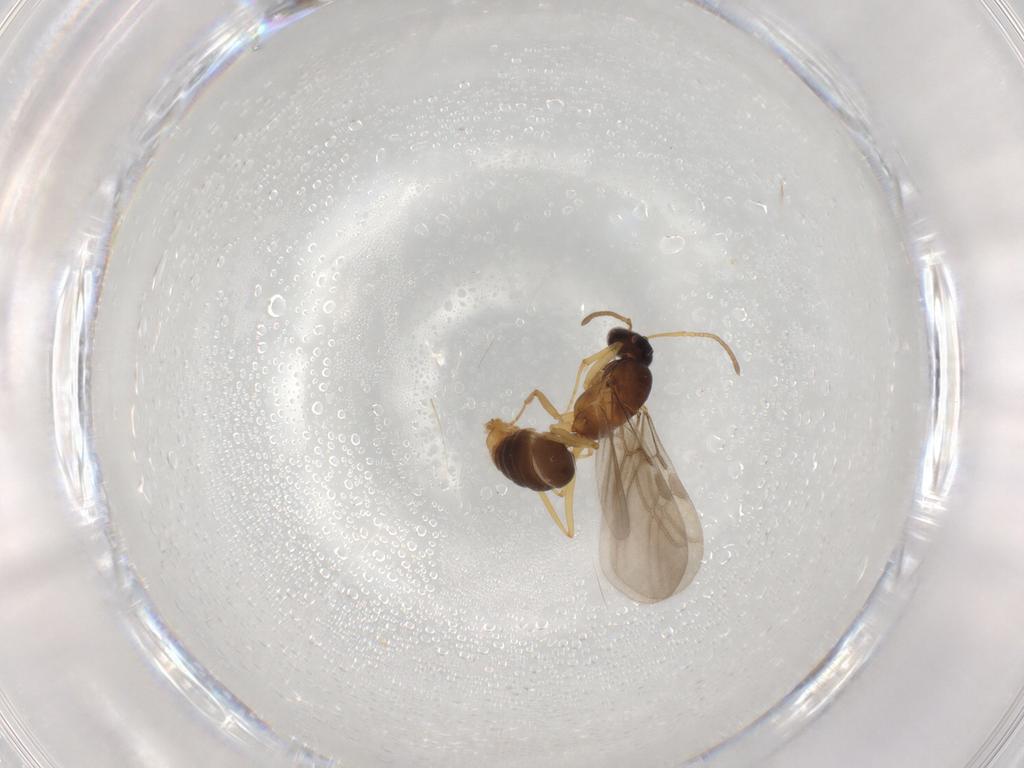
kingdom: Animalia
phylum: Arthropoda
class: Insecta
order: Hymenoptera
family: Formicidae
